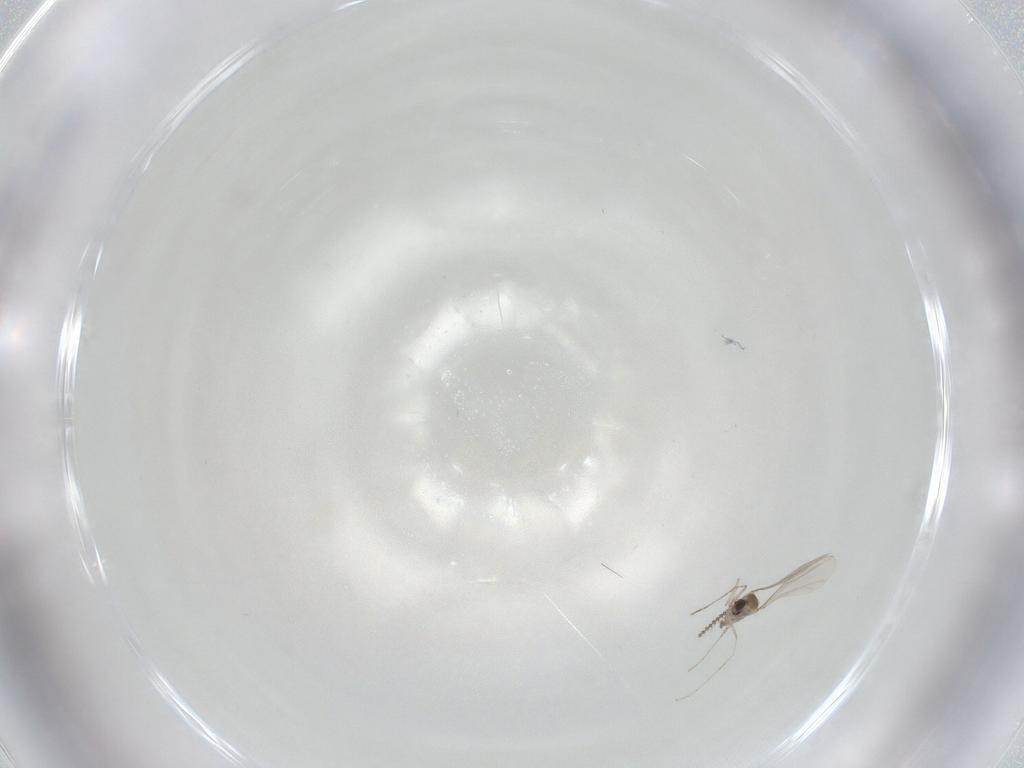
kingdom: Animalia
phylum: Arthropoda
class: Insecta
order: Diptera
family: Cecidomyiidae
